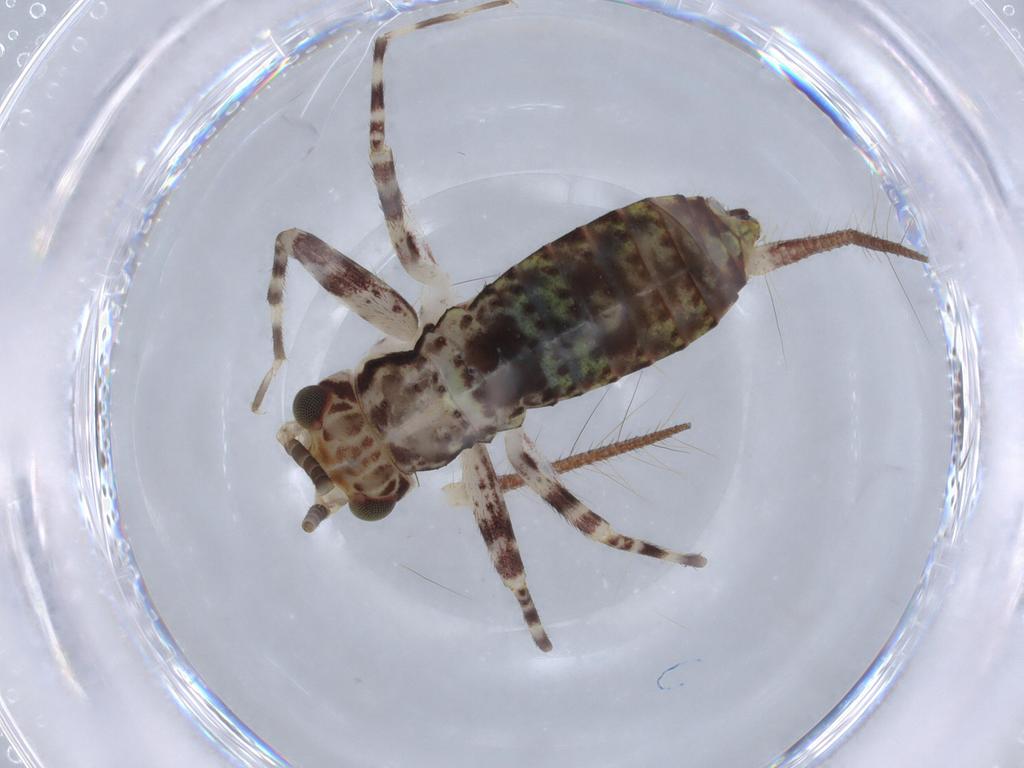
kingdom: Animalia
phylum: Arthropoda
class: Insecta
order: Orthoptera
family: Gryllidae
